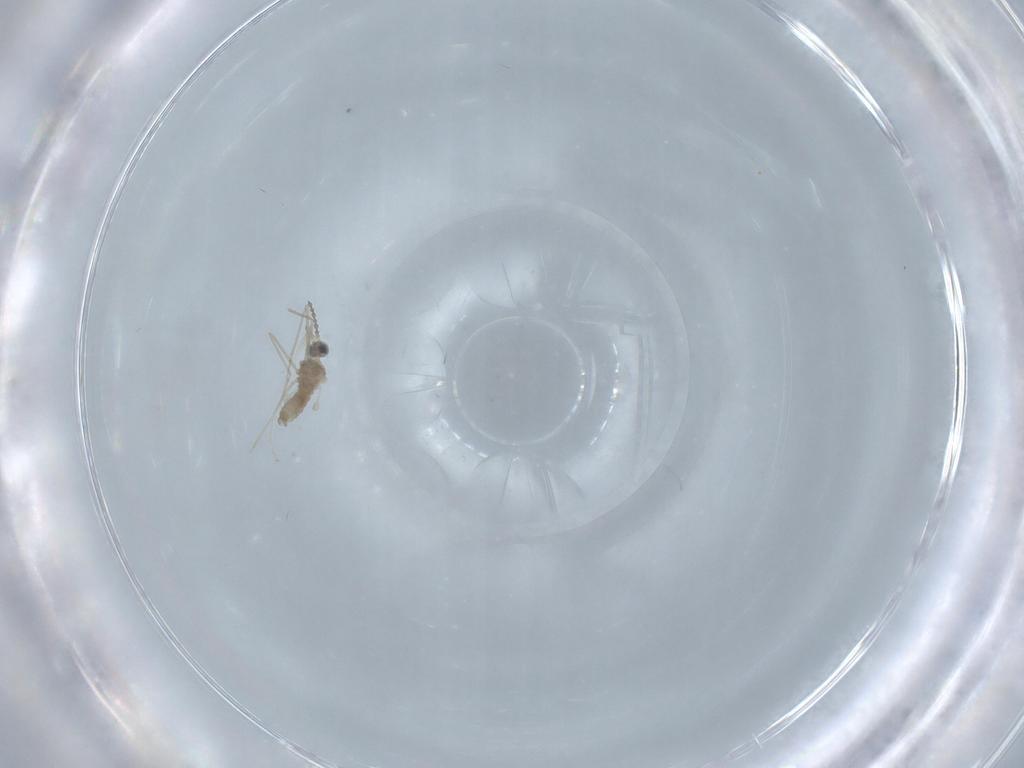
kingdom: Animalia
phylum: Arthropoda
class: Insecta
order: Diptera
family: Cecidomyiidae
